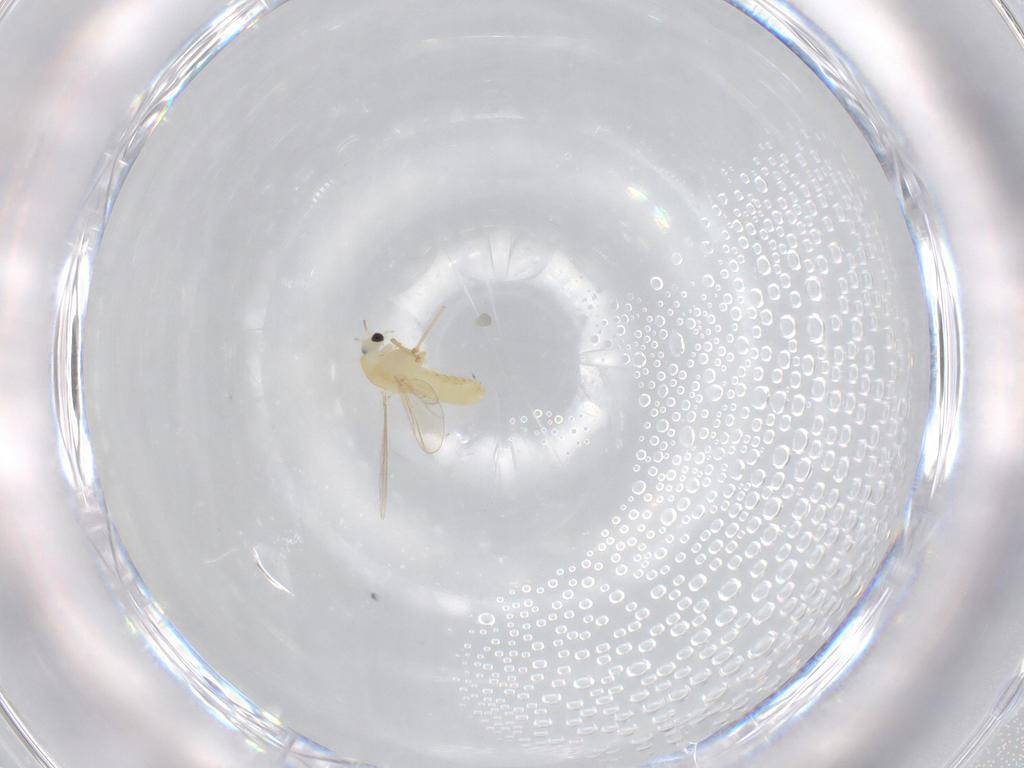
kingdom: Animalia
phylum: Arthropoda
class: Insecta
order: Diptera
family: Chironomidae
